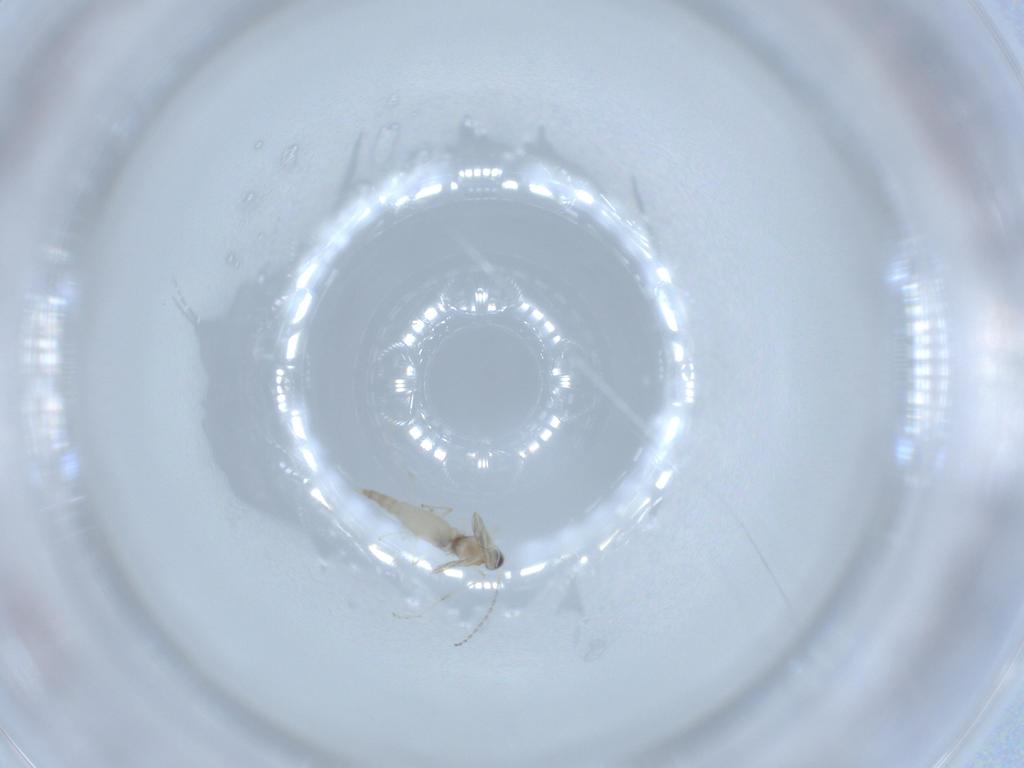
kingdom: Animalia
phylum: Arthropoda
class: Insecta
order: Diptera
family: Cecidomyiidae
